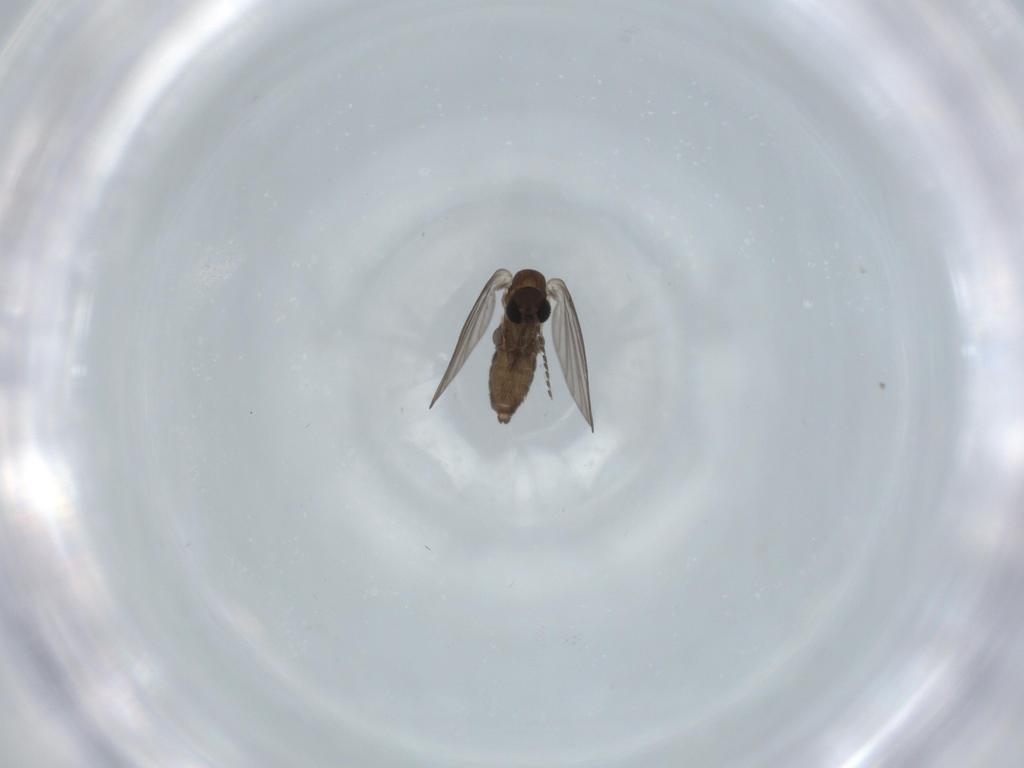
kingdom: Animalia
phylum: Arthropoda
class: Insecta
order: Diptera
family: Psychodidae
